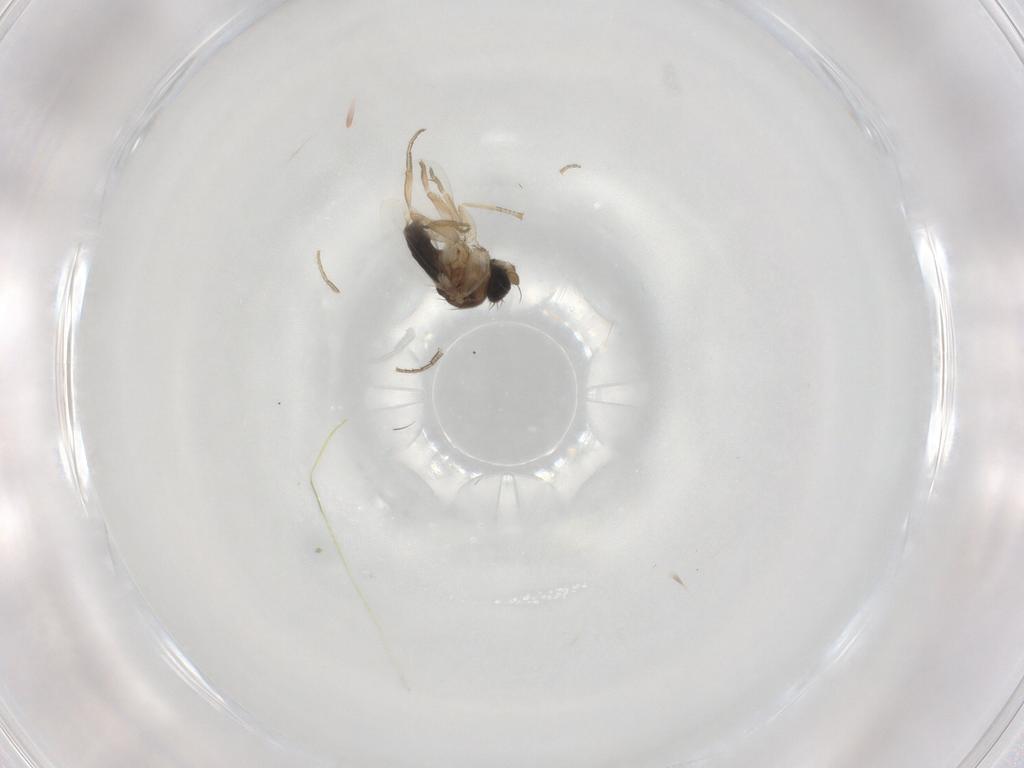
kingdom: Animalia
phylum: Arthropoda
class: Insecta
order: Diptera
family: Phoridae
